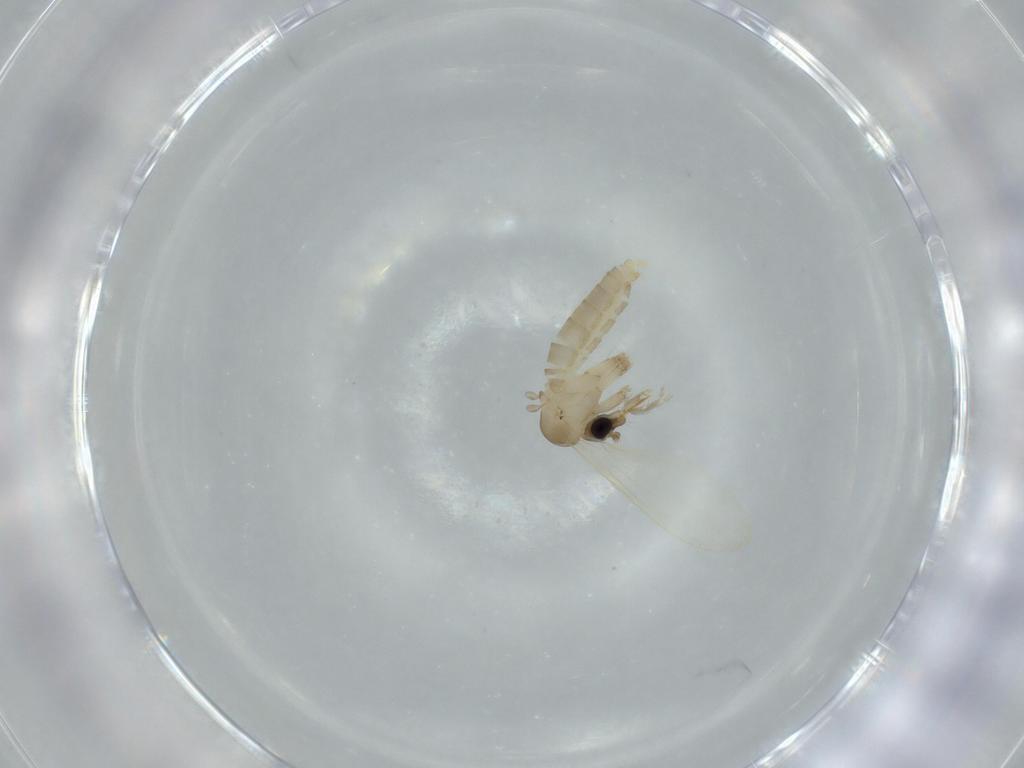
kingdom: Animalia
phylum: Arthropoda
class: Insecta
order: Diptera
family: Psychodidae
